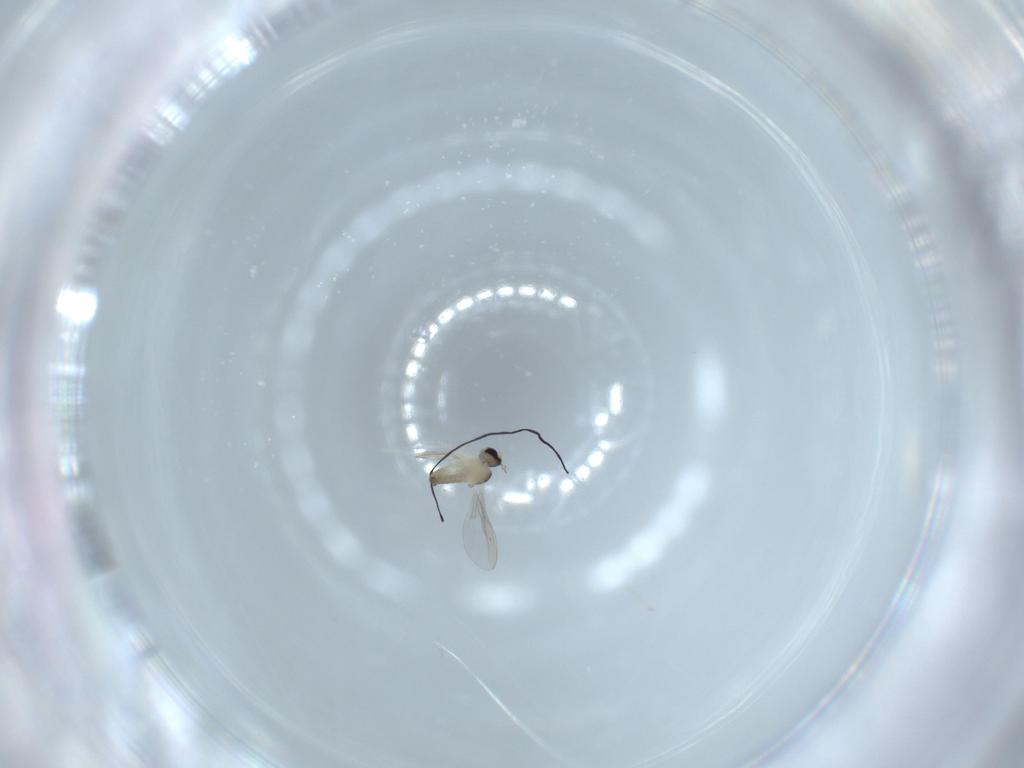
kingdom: Animalia
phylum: Arthropoda
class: Insecta
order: Diptera
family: Cecidomyiidae
